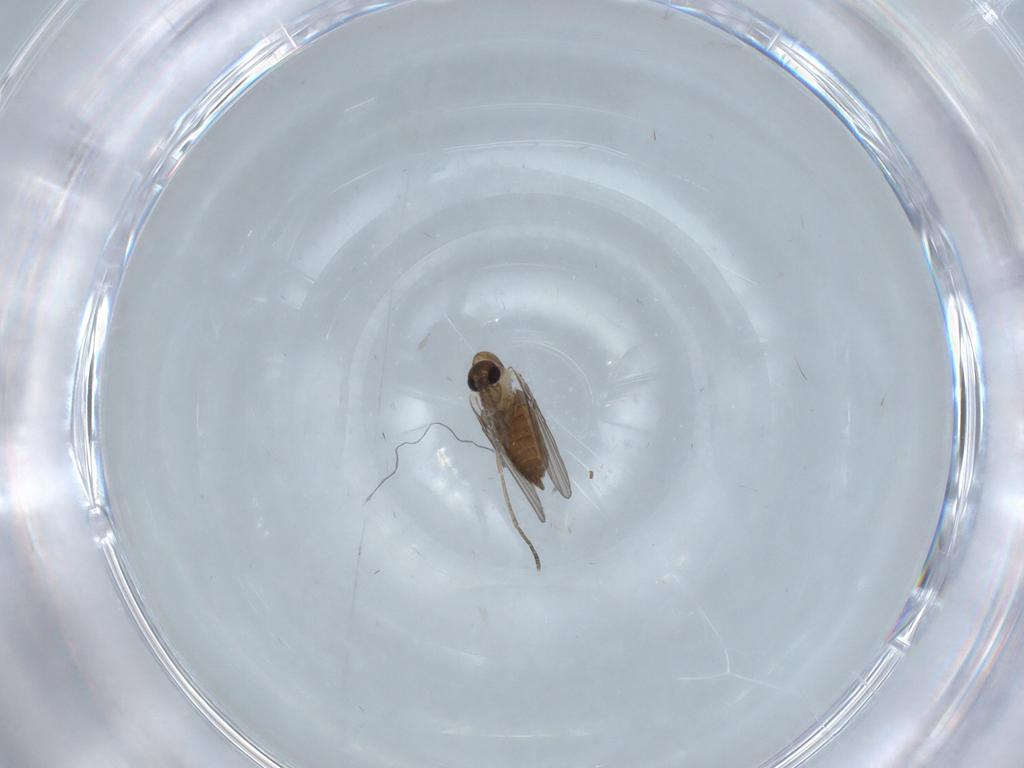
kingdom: Animalia
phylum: Arthropoda
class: Insecta
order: Diptera
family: Psychodidae
